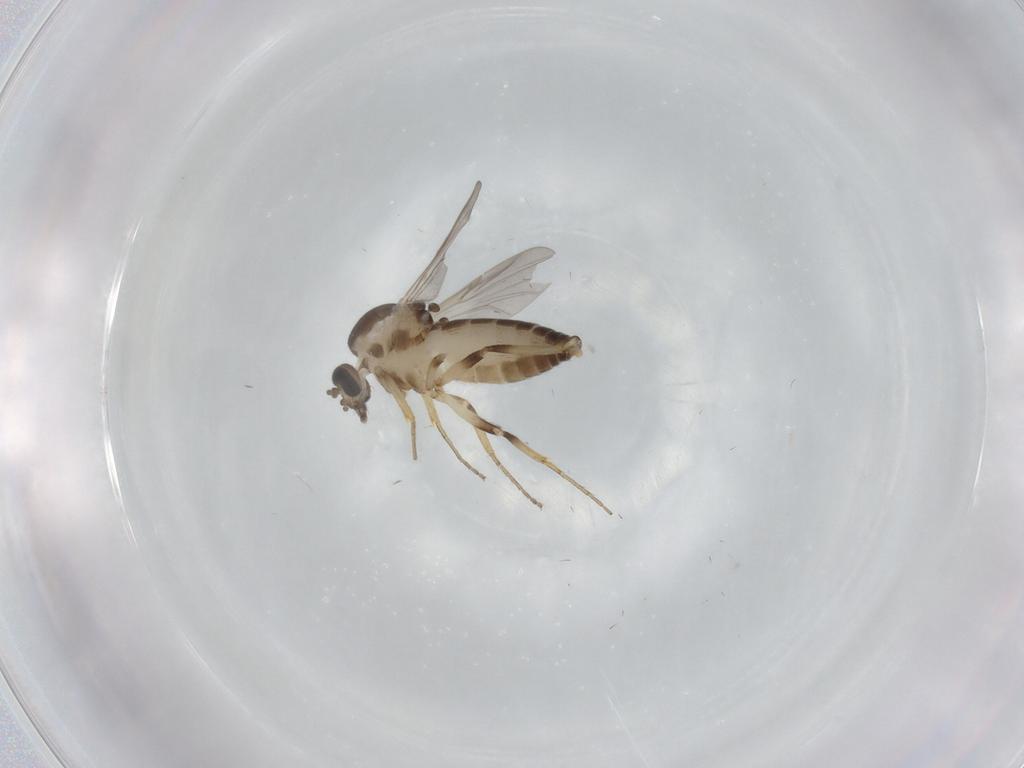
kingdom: Animalia
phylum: Arthropoda
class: Insecta
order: Diptera
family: Ceratopogonidae
